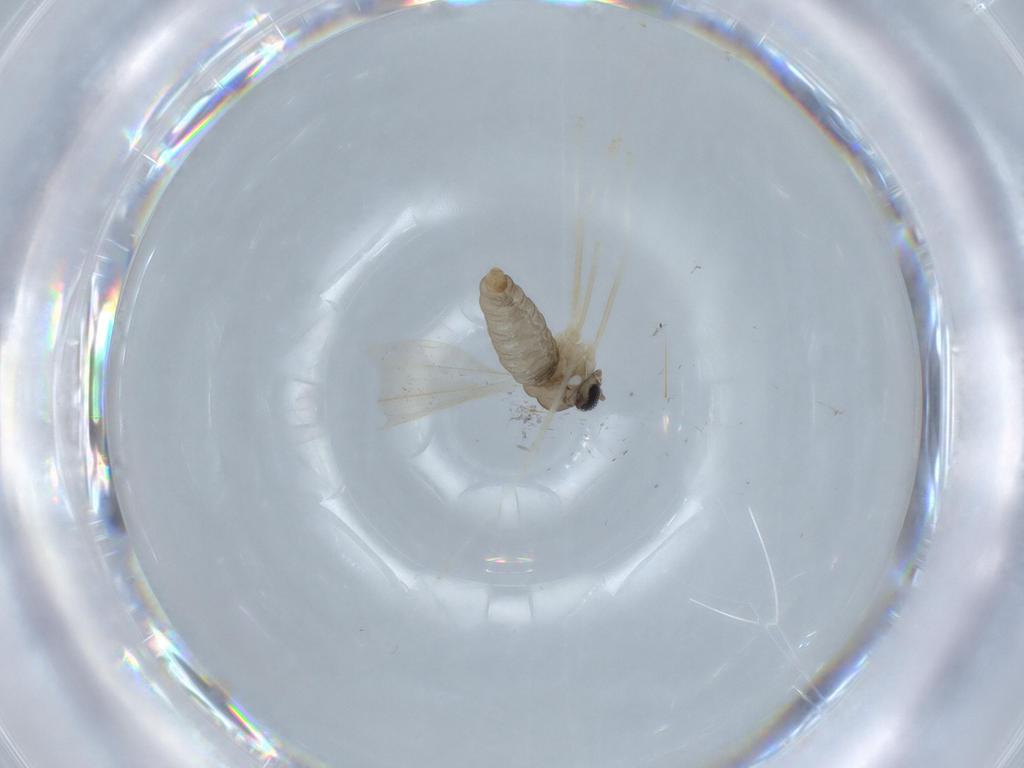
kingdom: Animalia
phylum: Arthropoda
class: Insecta
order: Diptera
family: Cecidomyiidae
